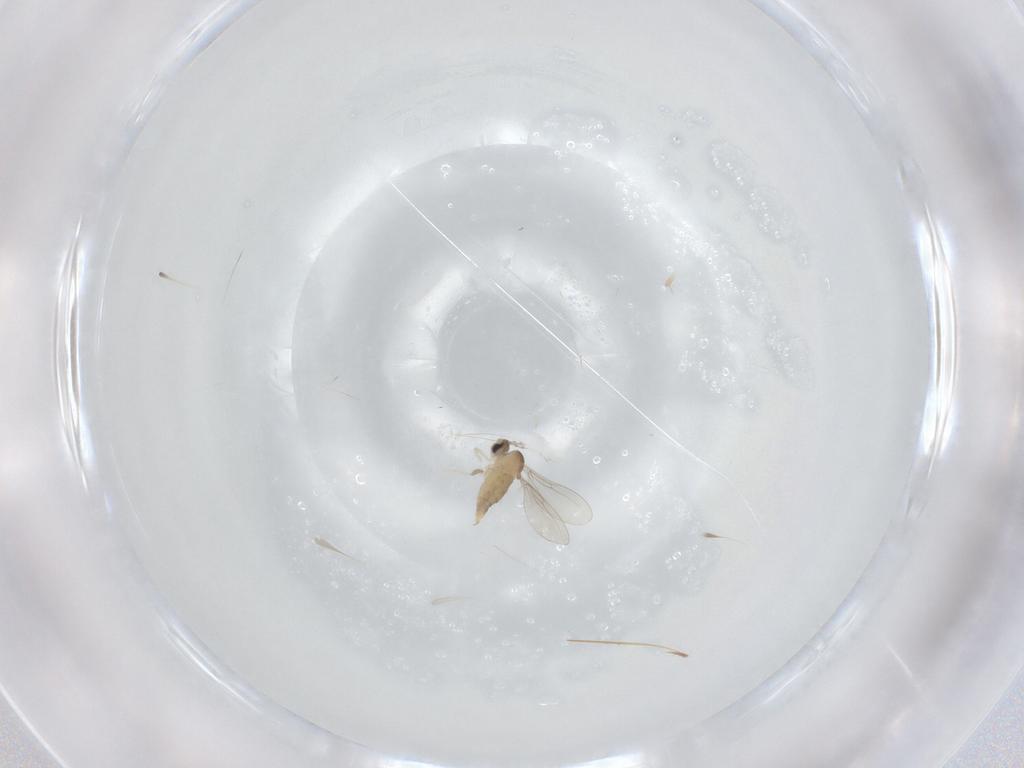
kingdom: Animalia
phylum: Arthropoda
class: Insecta
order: Diptera
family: Cecidomyiidae
